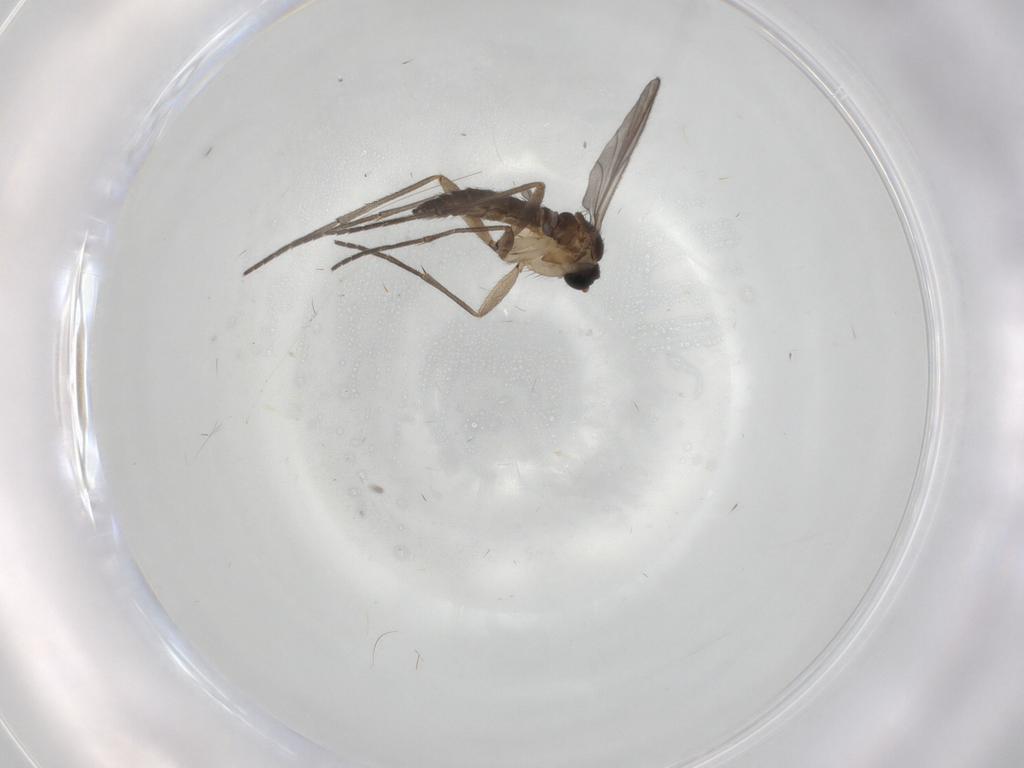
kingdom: Animalia
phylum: Arthropoda
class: Insecta
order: Diptera
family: Sciaridae
